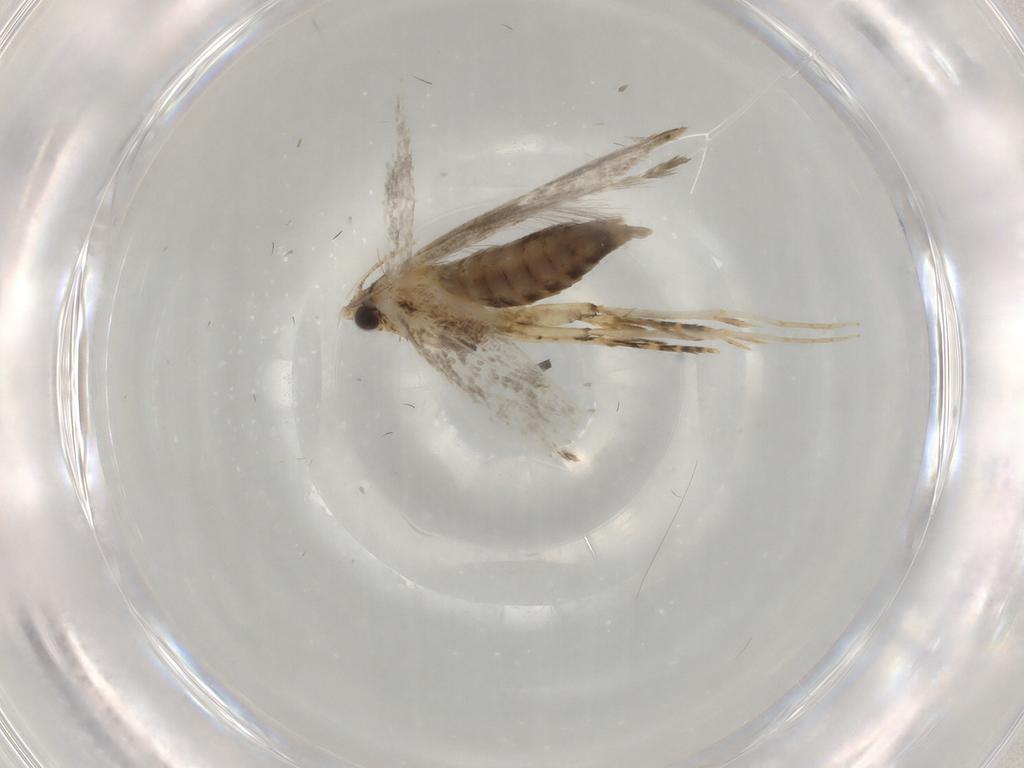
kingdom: Animalia
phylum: Arthropoda
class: Insecta
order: Lepidoptera
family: Tineidae
